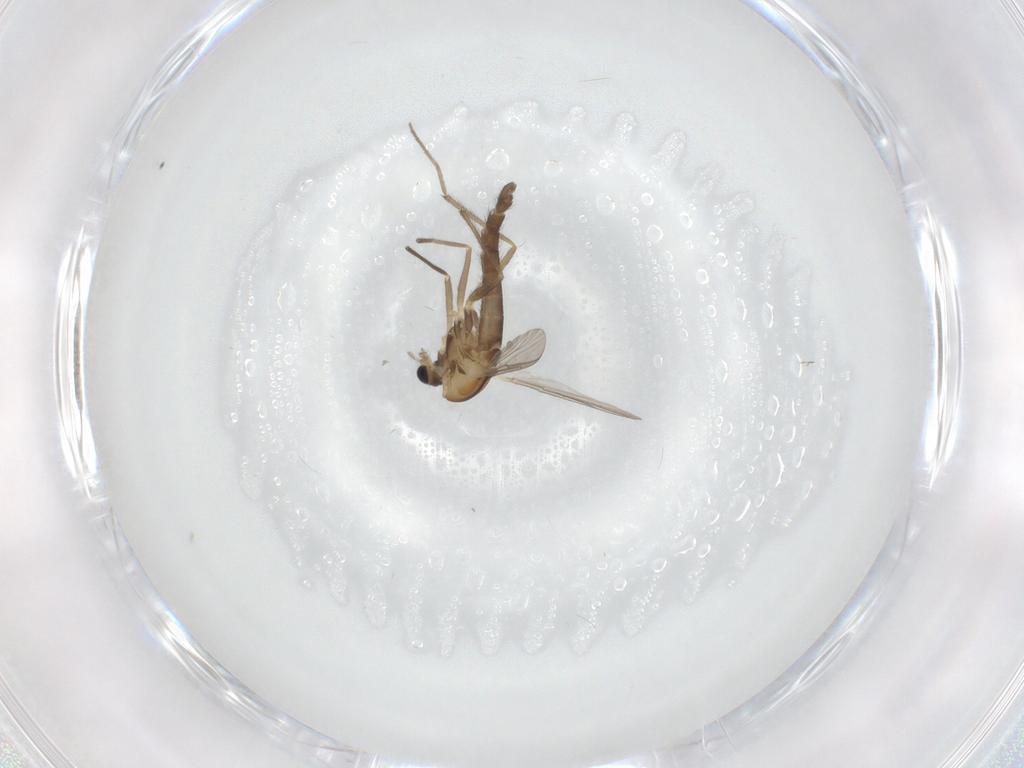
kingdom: Animalia
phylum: Arthropoda
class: Insecta
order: Diptera
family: Chironomidae
